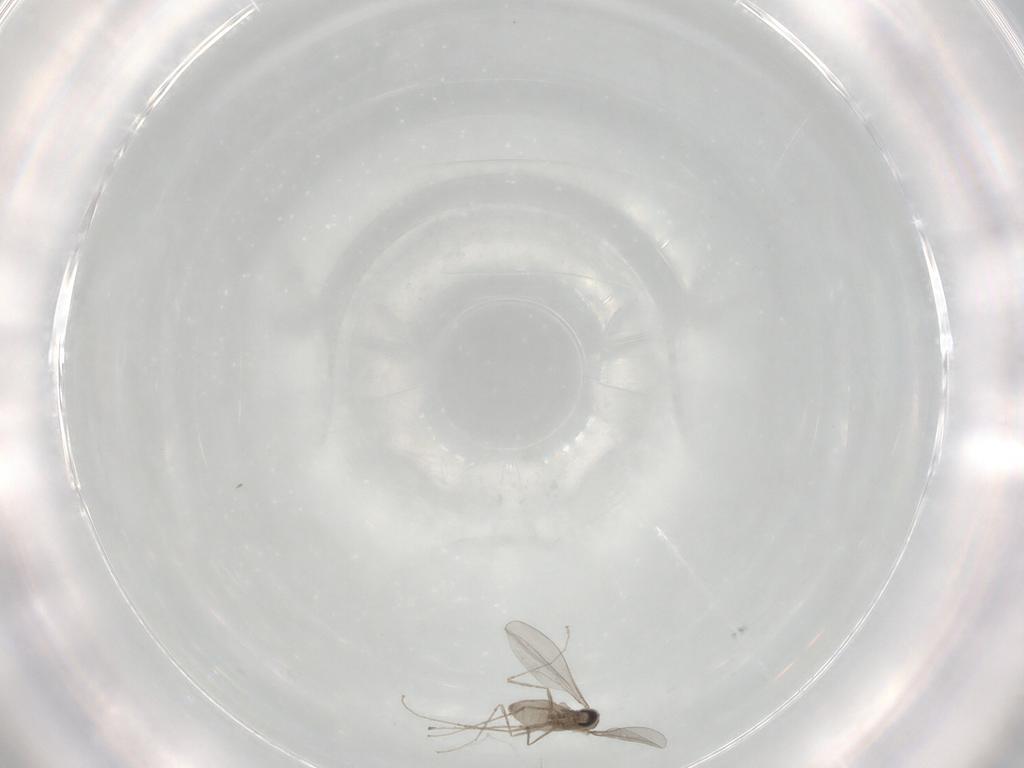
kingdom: Animalia
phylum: Arthropoda
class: Insecta
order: Diptera
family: Cecidomyiidae
